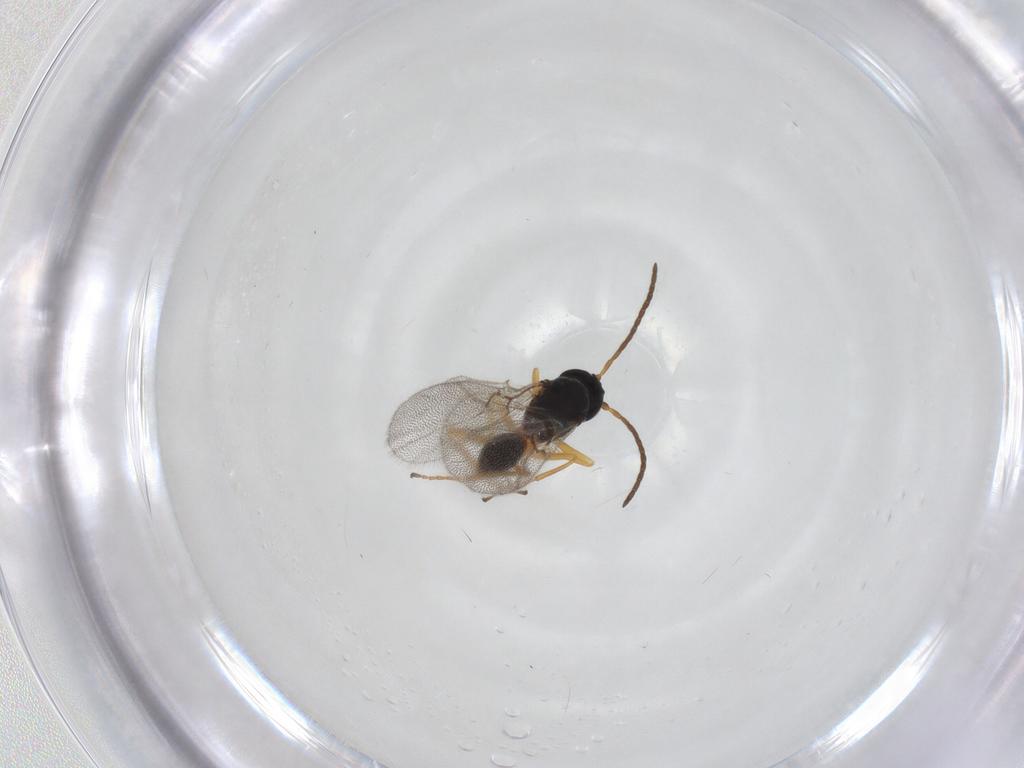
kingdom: Animalia
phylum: Arthropoda
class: Insecta
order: Hymenoptera
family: Cynipidae
